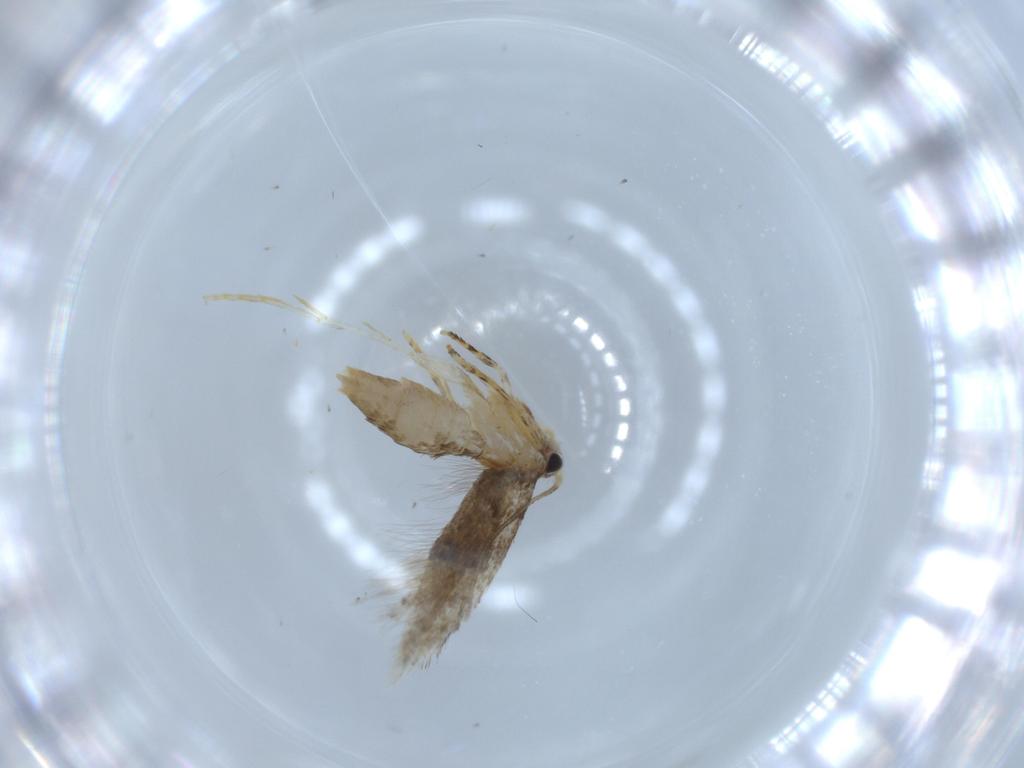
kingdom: Animalia
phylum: Arthropoda
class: Insecta
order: Lepidoptera
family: Tineidae
